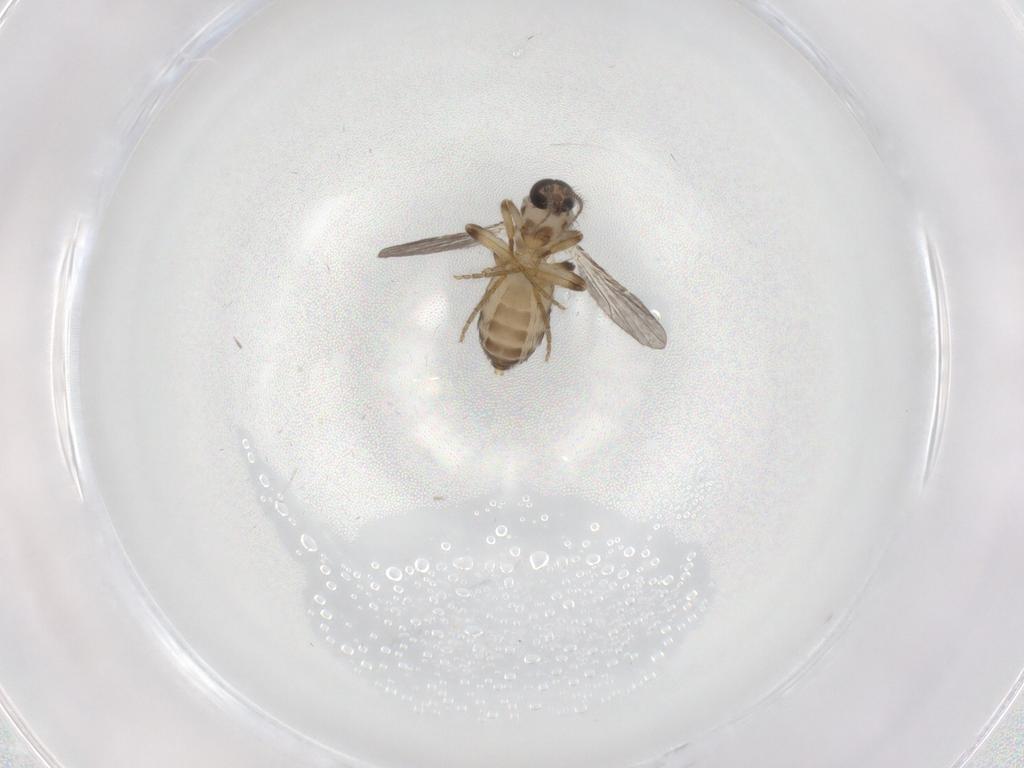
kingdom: Animalia
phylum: Arthropoda
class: Insecta
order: Diptera
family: Ceratopogonidae
